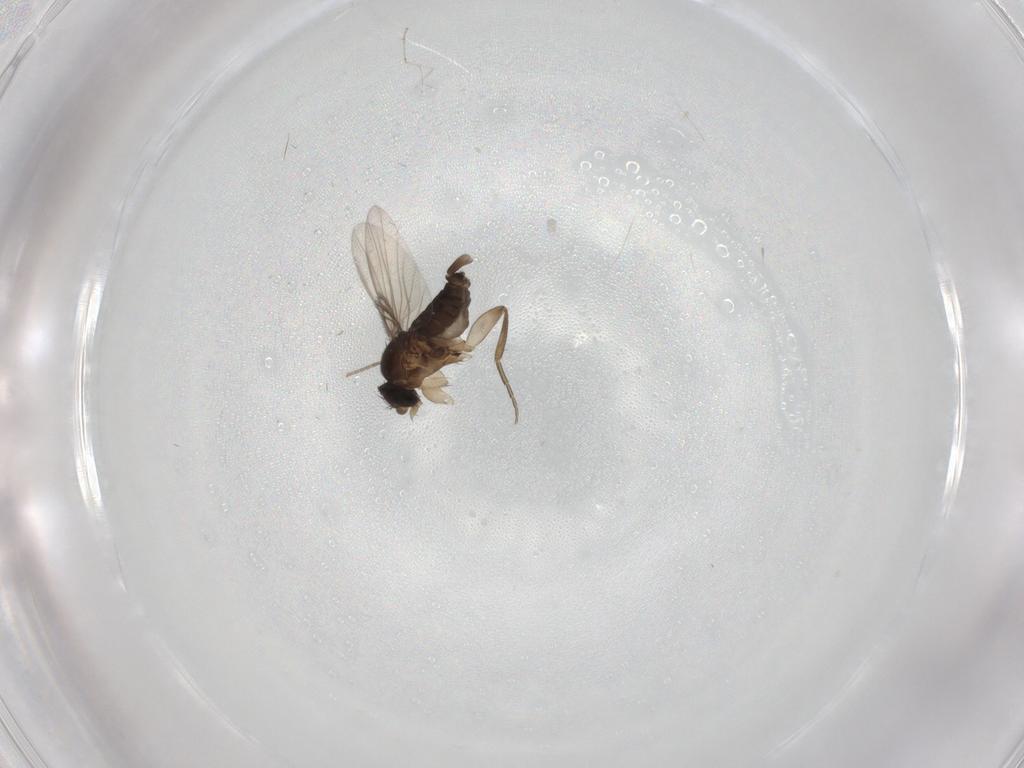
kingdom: Animalia
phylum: Arthropoda
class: Insecta
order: Diptera
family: Phoridae
